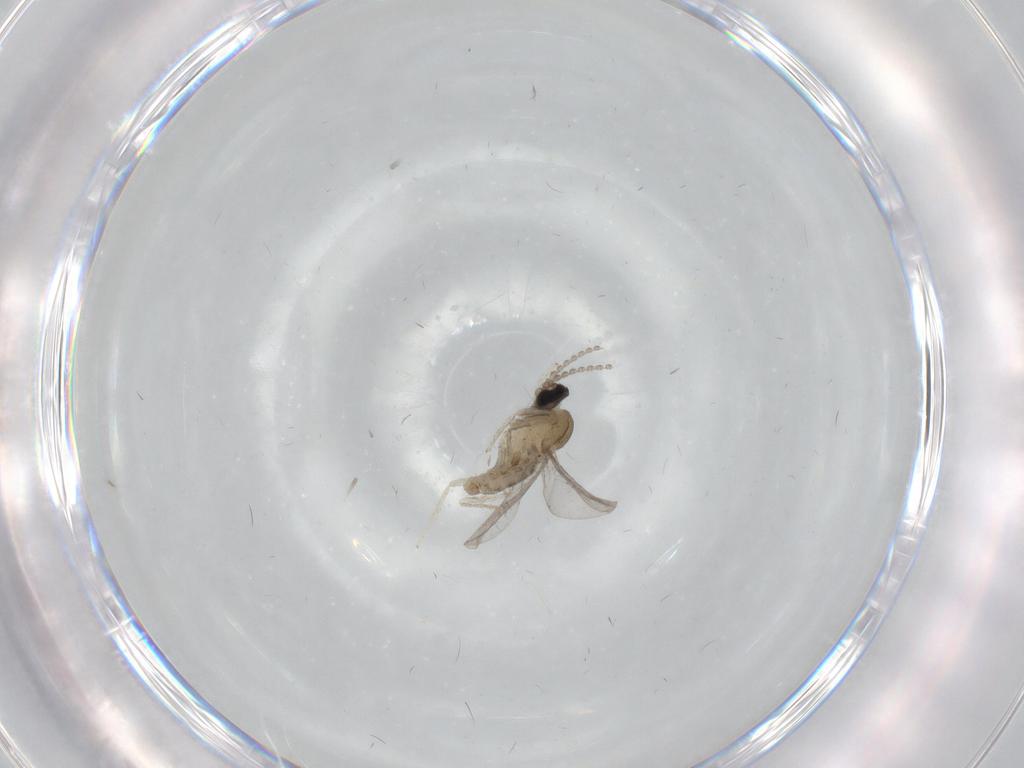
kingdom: Animalia
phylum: Arthropoda
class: Insecta
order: Diptera
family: Cecidomyiidae
